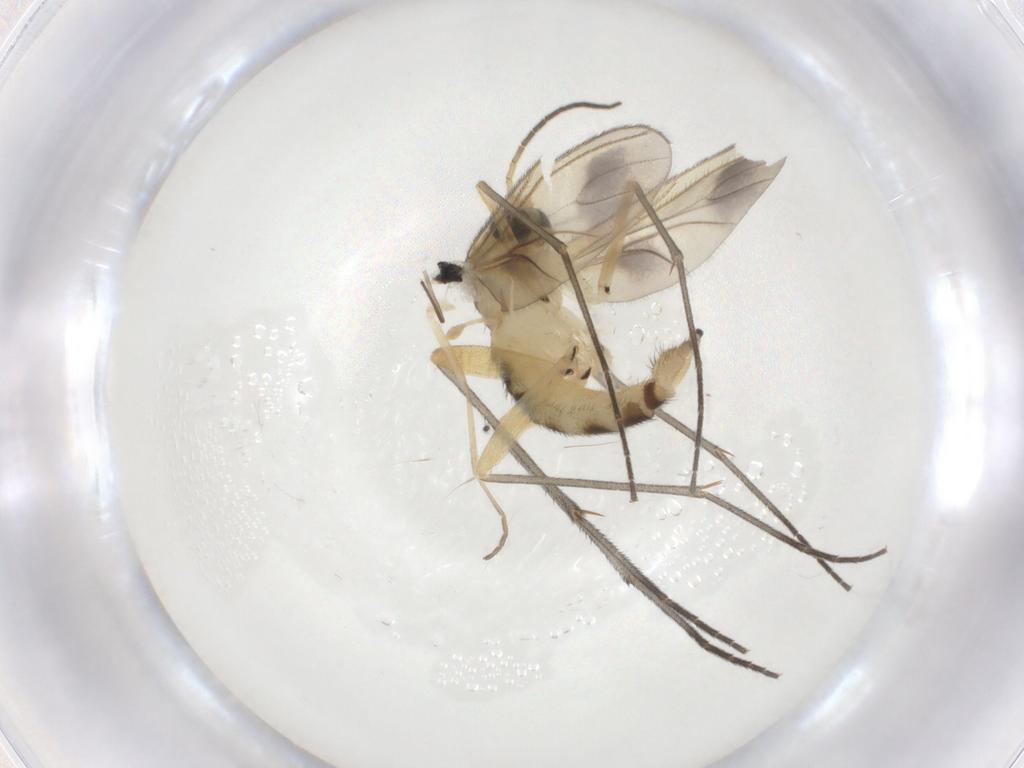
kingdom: Animalia
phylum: Arthropoda
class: Insecta
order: Diptera
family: Sciaridae
